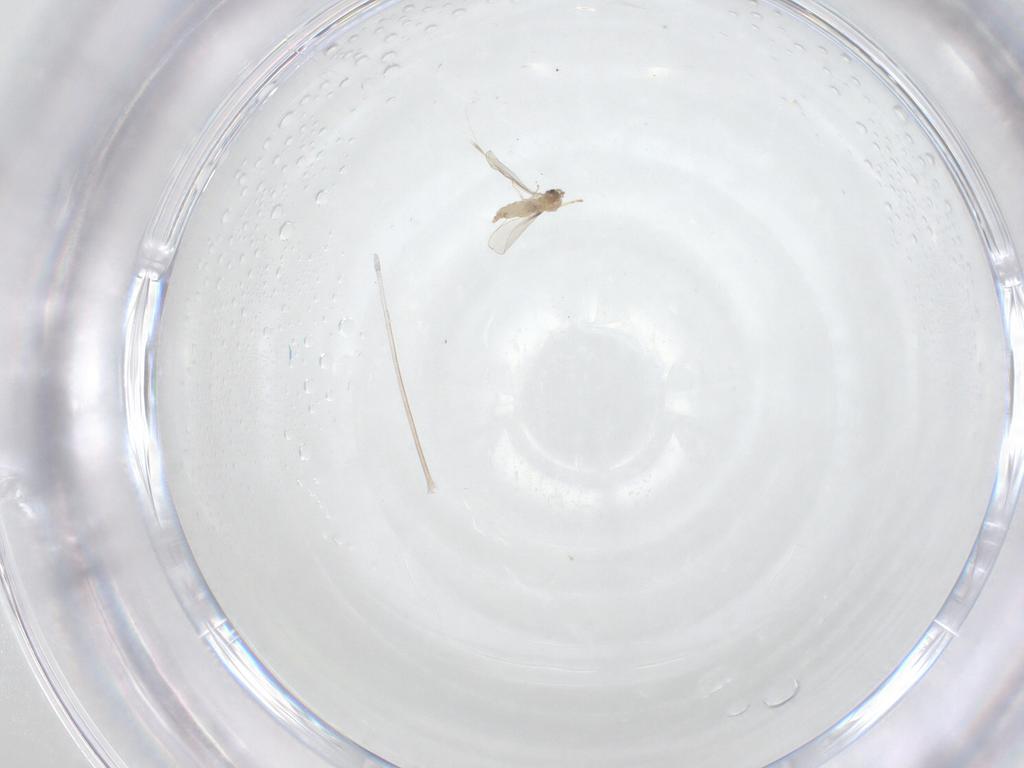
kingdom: Animalia
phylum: Arthropoda
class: Insecta
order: Diptera
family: Cecidomyiidae
